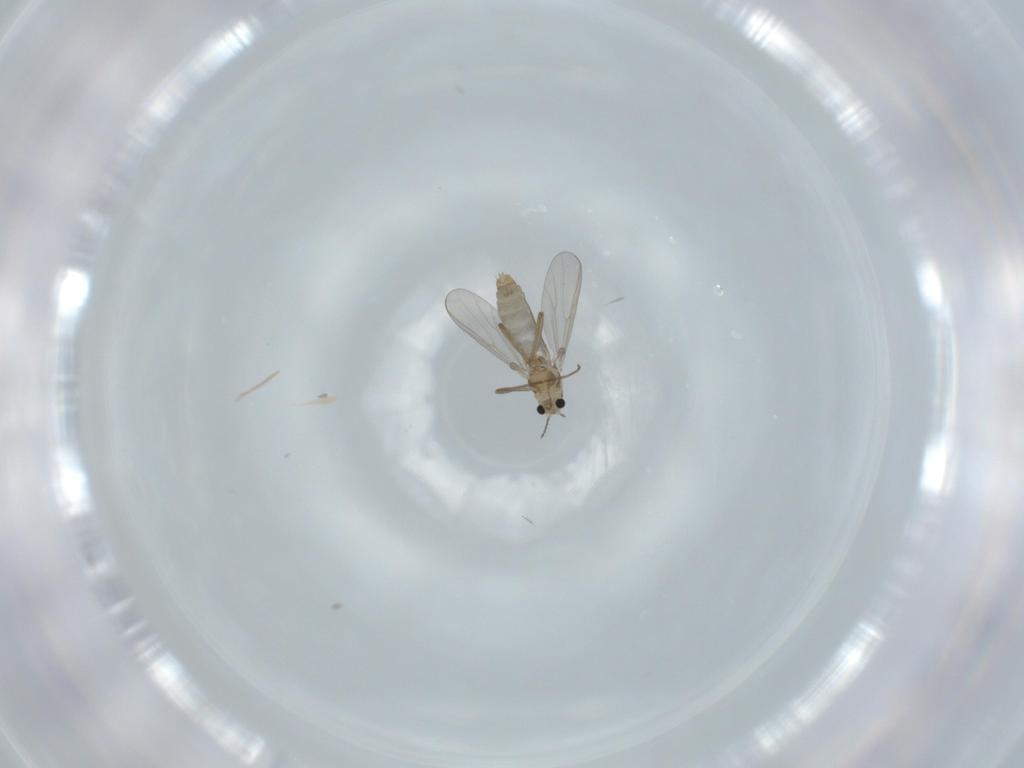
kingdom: Animalia
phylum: Arthropoda
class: Insecta
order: Diptera
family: Chironomidae
